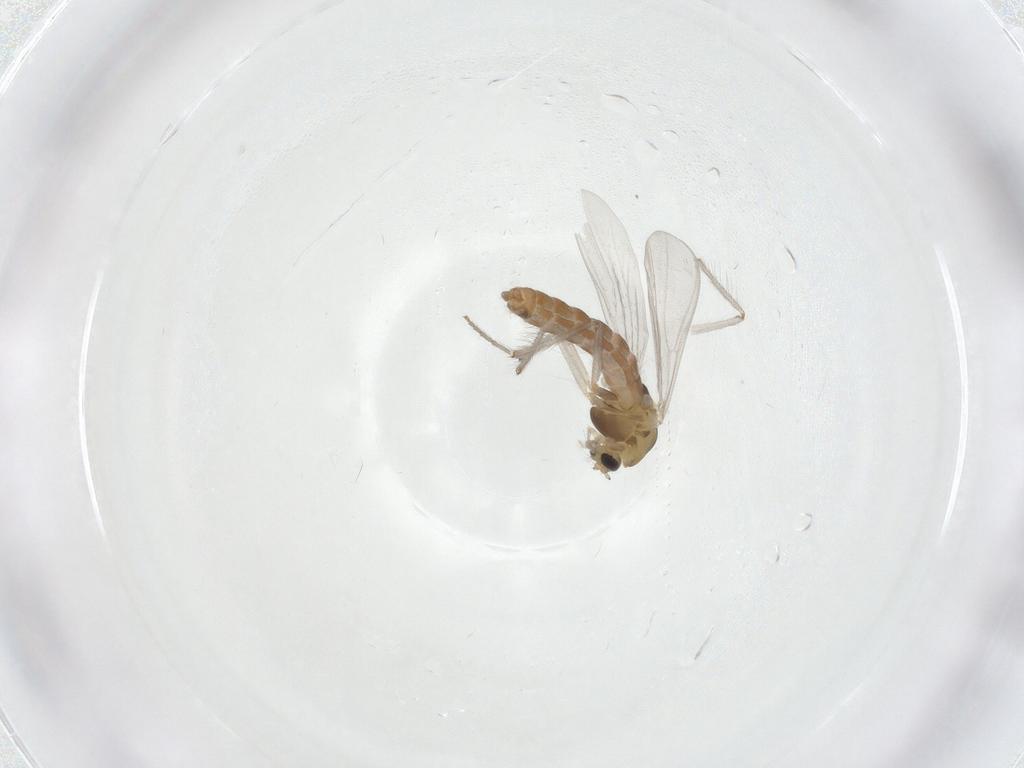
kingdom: Animalia
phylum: Arthropoda
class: Insecta
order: Diptera
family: Chironomidae
